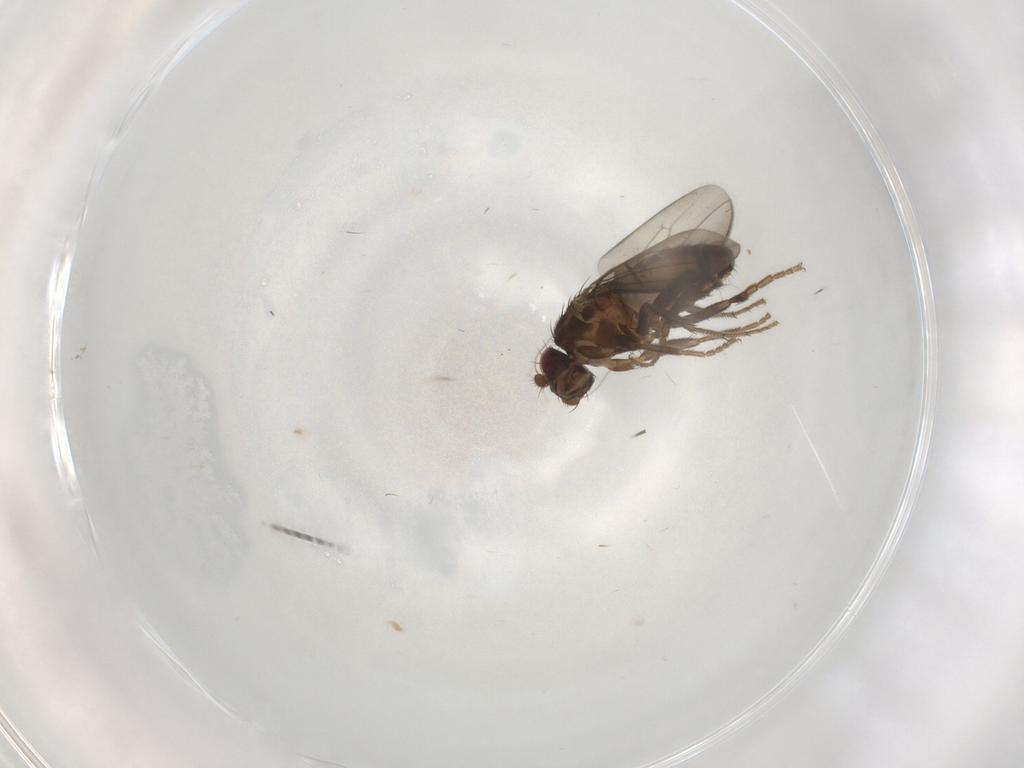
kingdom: Animalia
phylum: Arthropoda
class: Insecta
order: Diptera
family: Sphaeroceridae
